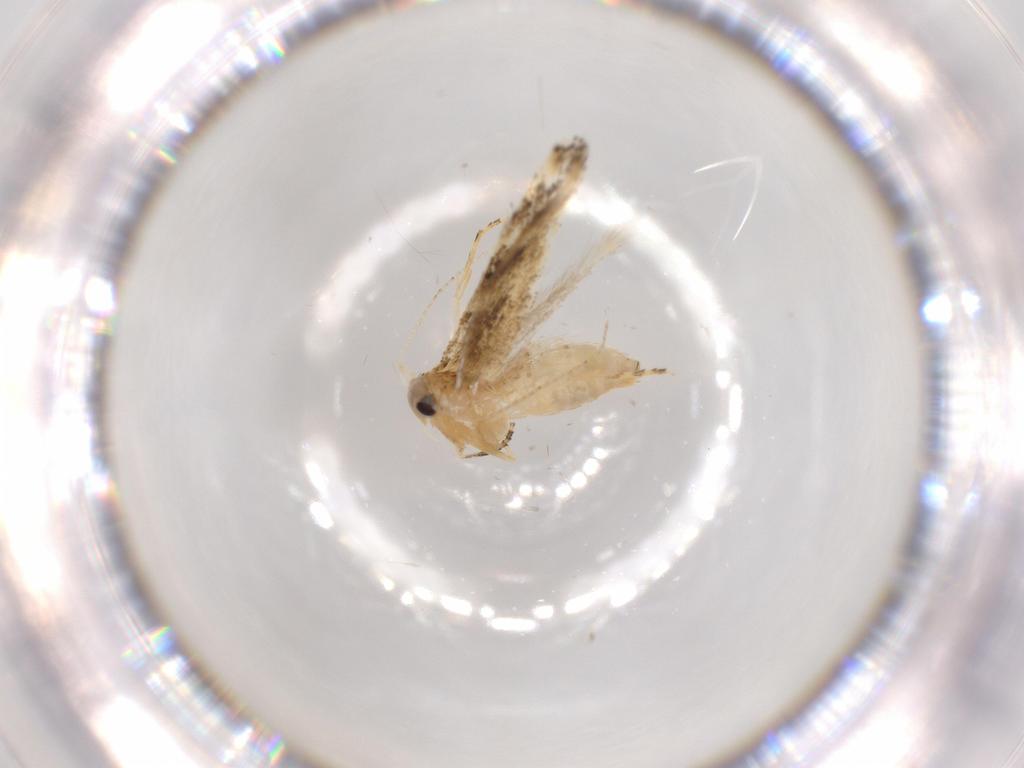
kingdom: Animalia
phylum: Arthropoda
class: Insecta
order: Lepidoptera
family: Bucculatricidae
